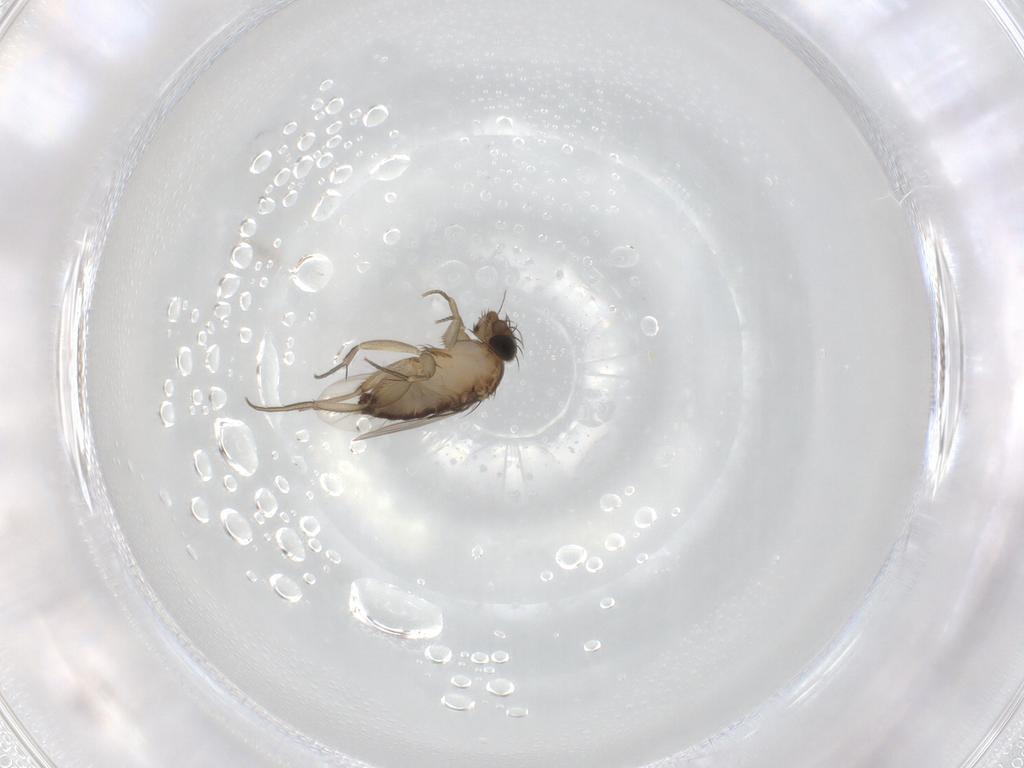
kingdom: Animalia
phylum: Arthropoda
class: Insecta
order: Diptera
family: Phoridae
